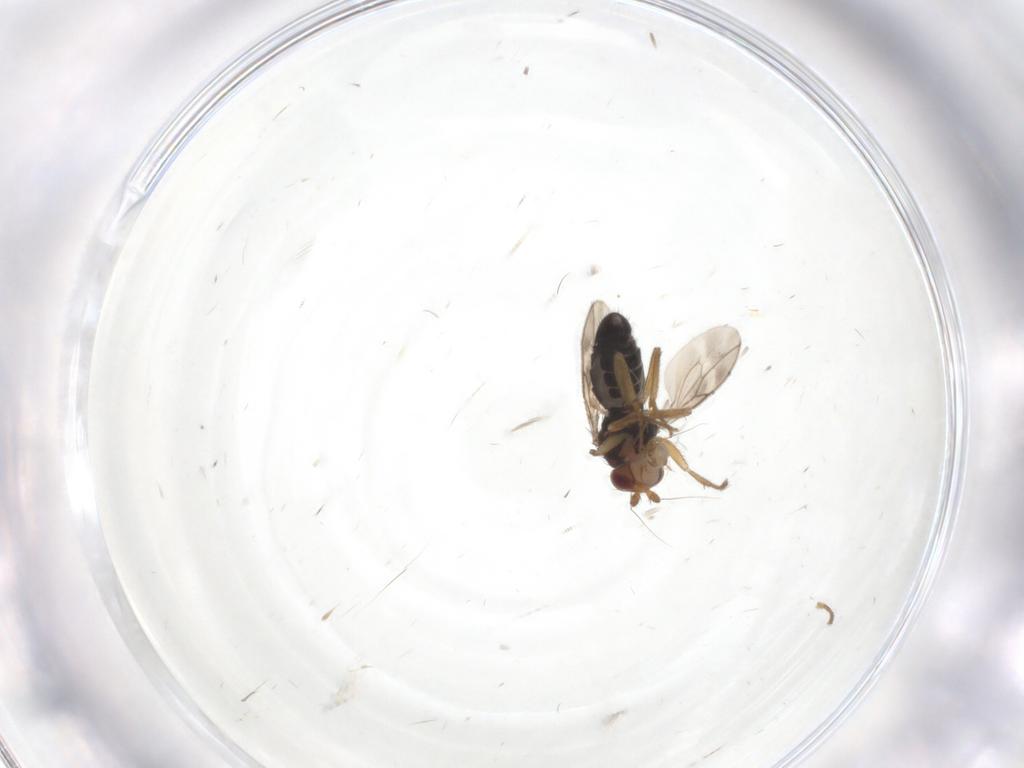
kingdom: Animalia
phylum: Arthropoda
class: Insecta
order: Diptera
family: Sphaeroceridae
